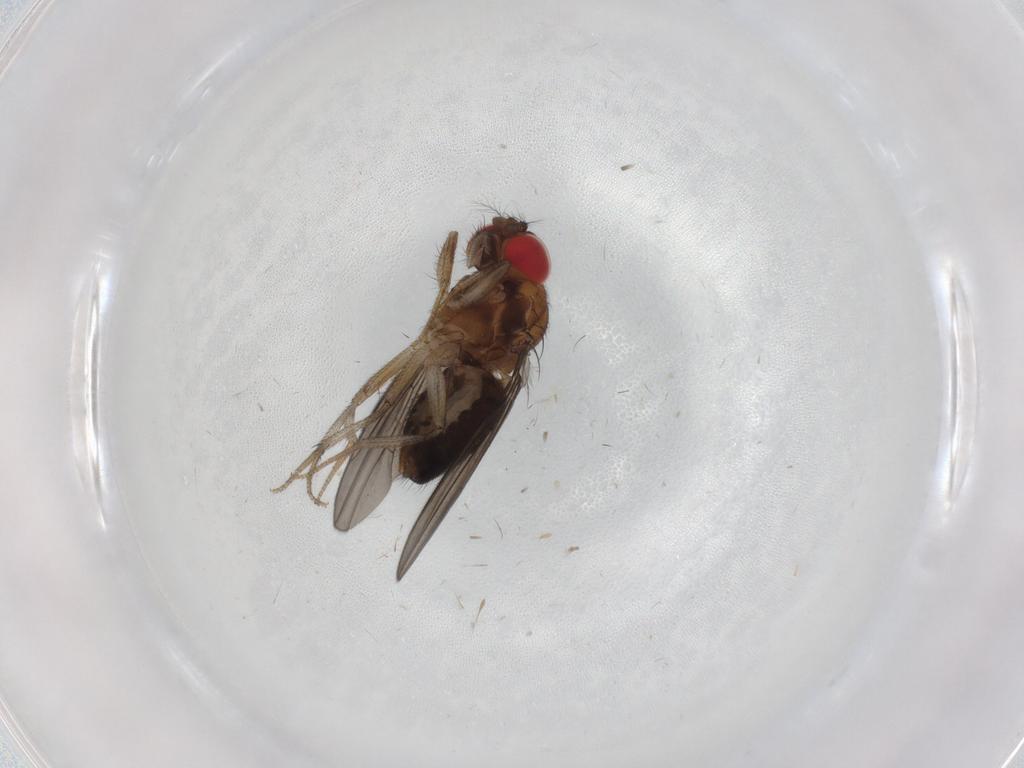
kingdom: Animalia
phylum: Arthropoda
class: Insecta
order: Diptera
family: Drosophilidae
